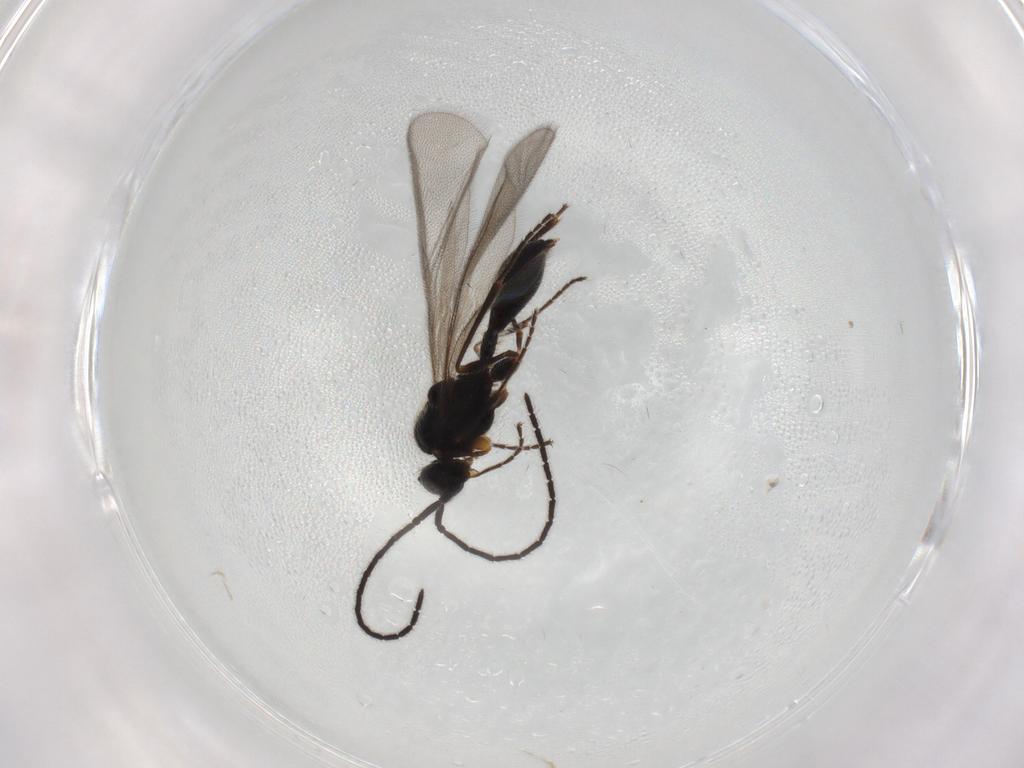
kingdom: Animalia
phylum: Arthropoda
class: Insecta
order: Hymenoptera
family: Diapriidae
